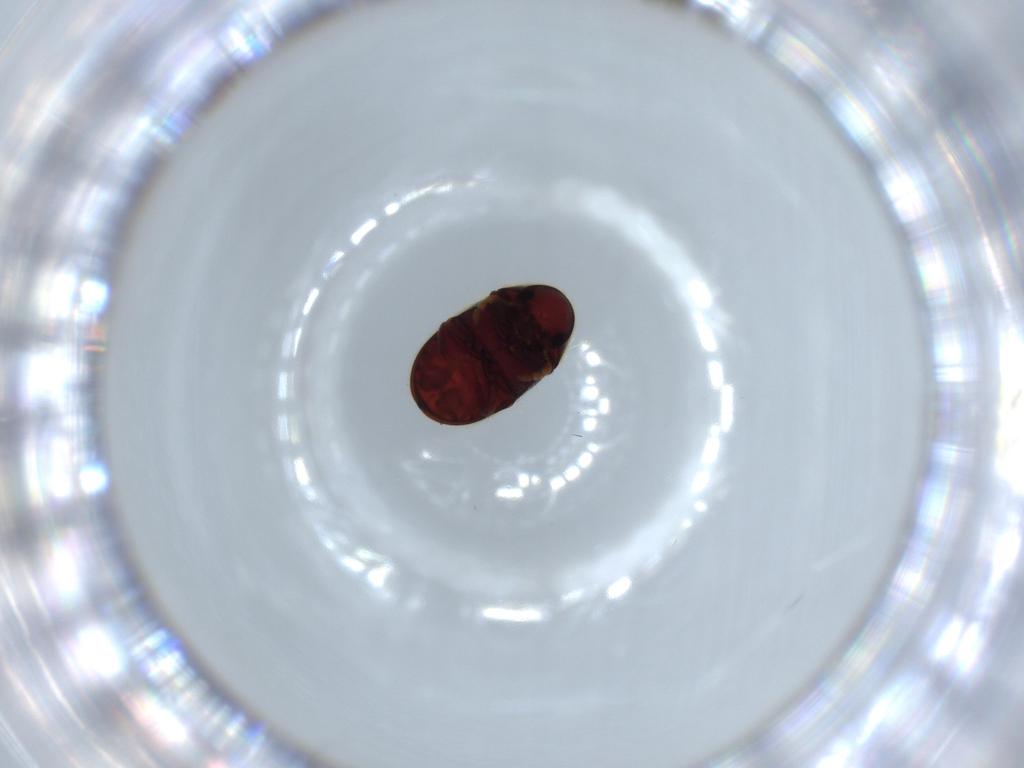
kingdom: Animalia
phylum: Arthropoda
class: Insecta
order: Coleoptera
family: Ptinidae
